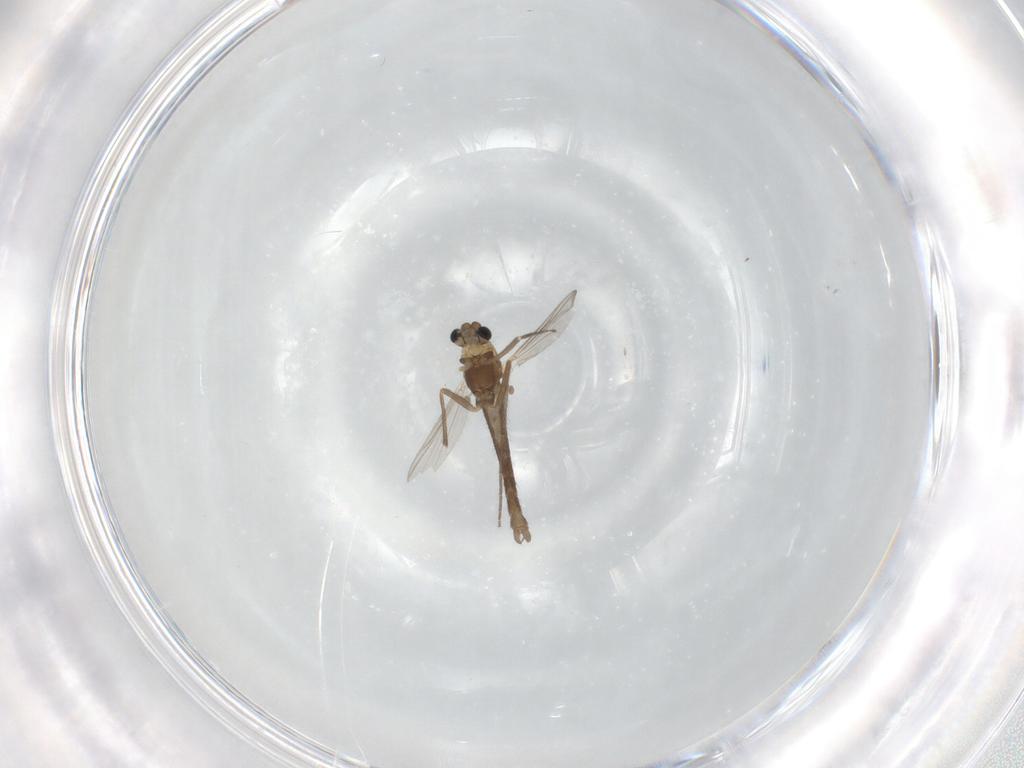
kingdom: Animalia
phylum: Arthropoda
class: Insecta
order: Diptera
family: Chironomidae
